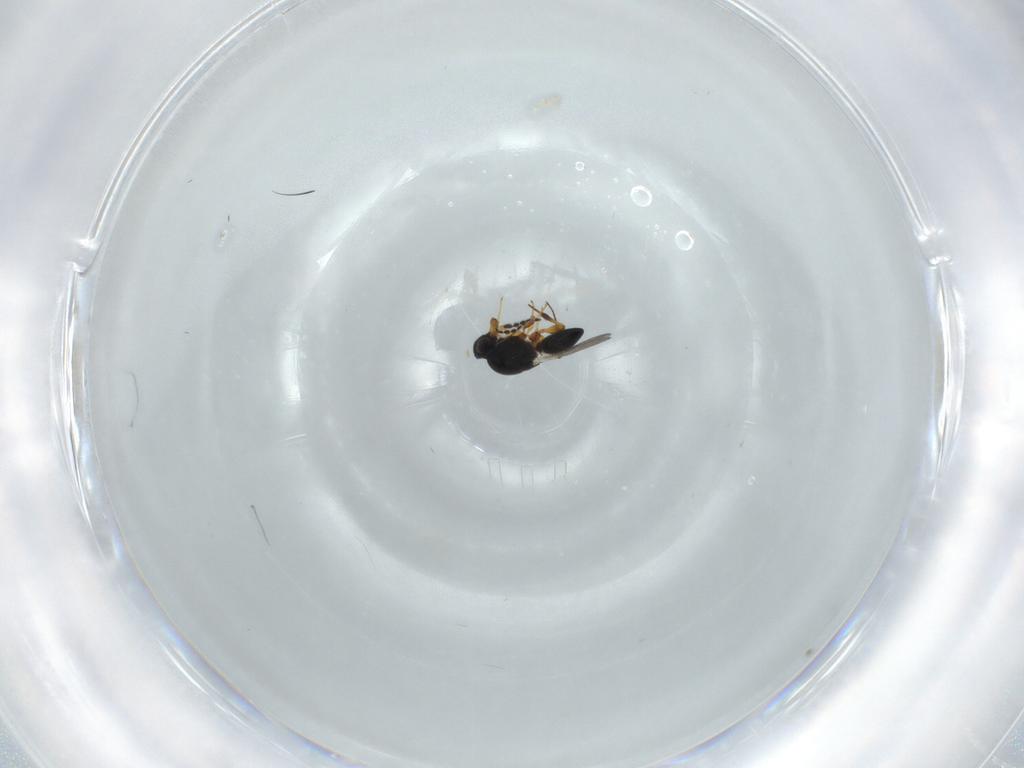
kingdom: Animalia
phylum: Arthropoda
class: Insecta
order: Hymenoptera
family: Platygastridae
